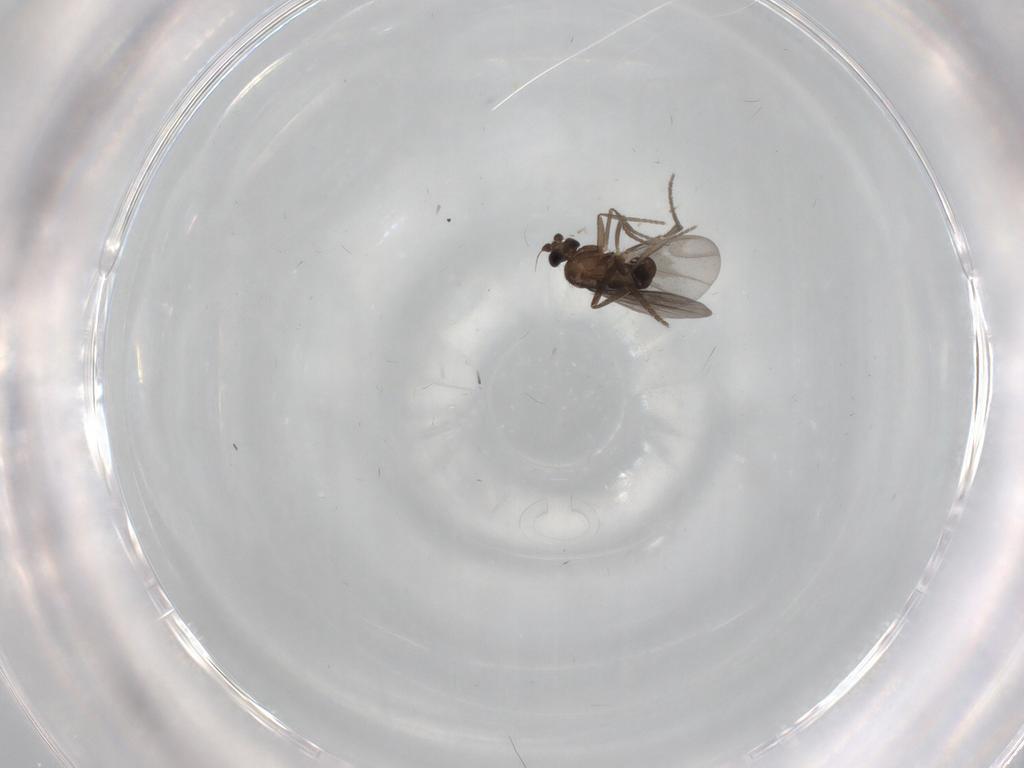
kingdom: Animalia
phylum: Arthropoda
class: Insecta
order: Diptera
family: Phoridae
